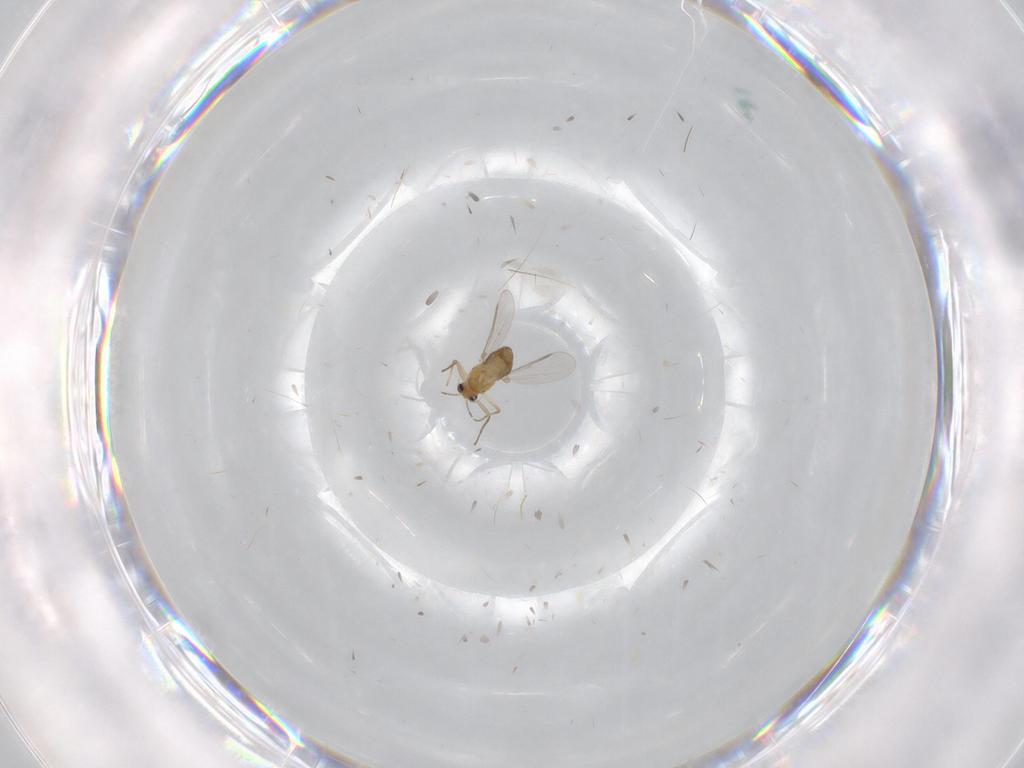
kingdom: Animalia
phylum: Arthropoda
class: Insecta
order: Diptera
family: Chironomidae
